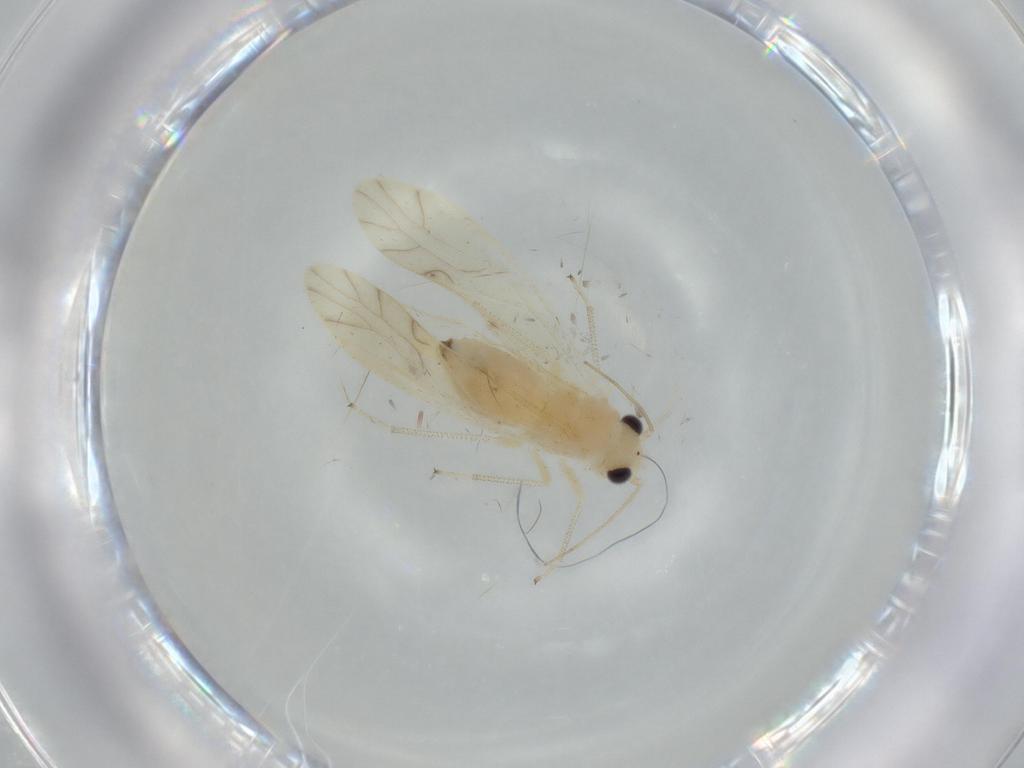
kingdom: Animalia
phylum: Arthropoda
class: Insecta
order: Psocodea
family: Caeciliusidae
